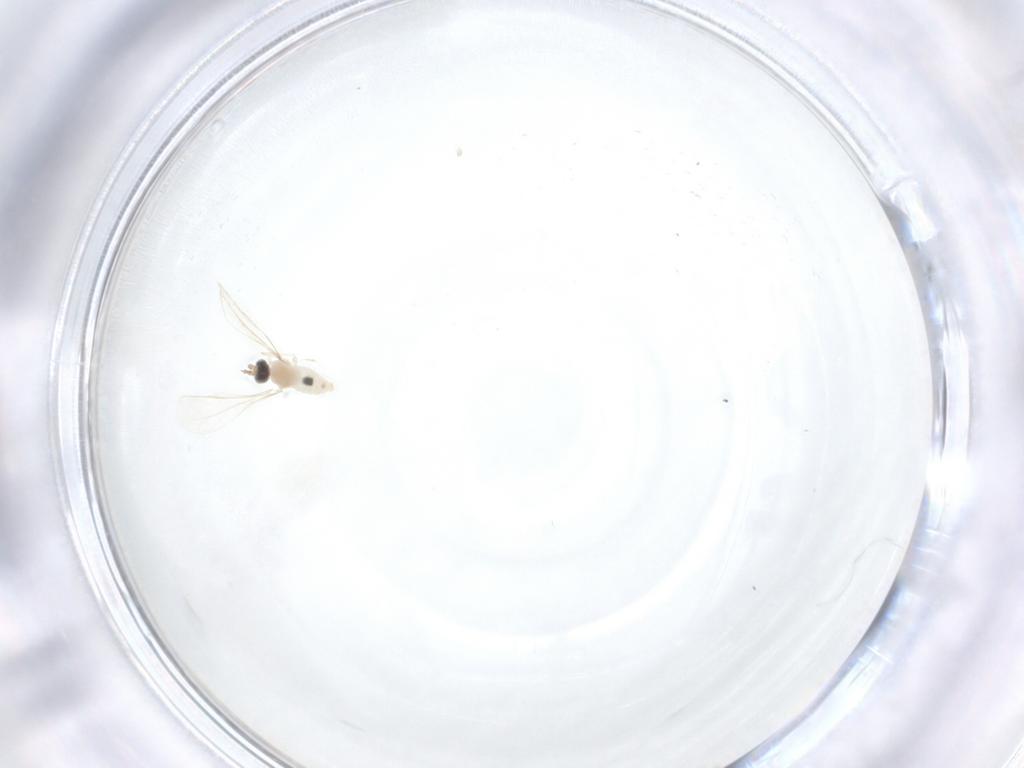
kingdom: Animalia
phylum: Arthropoda
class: Insecta
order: Diptera
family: Cecidomyiidae
